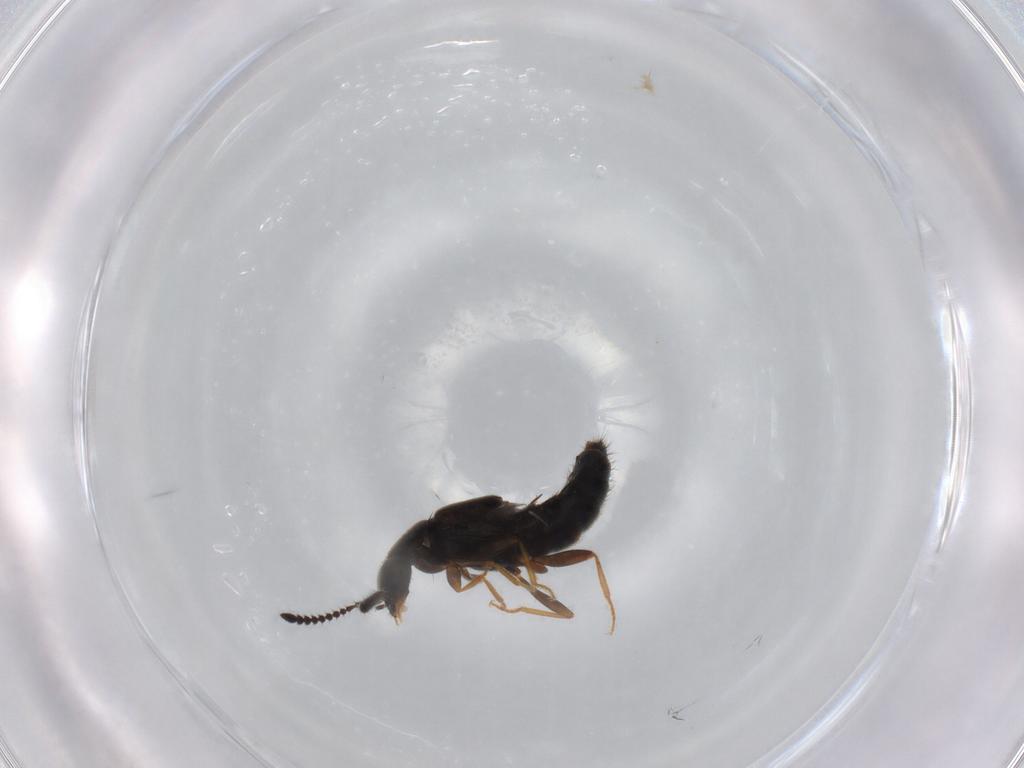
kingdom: Animalia
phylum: Arthropoda
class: Insecta
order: Coleoptera
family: Staphylinidae
